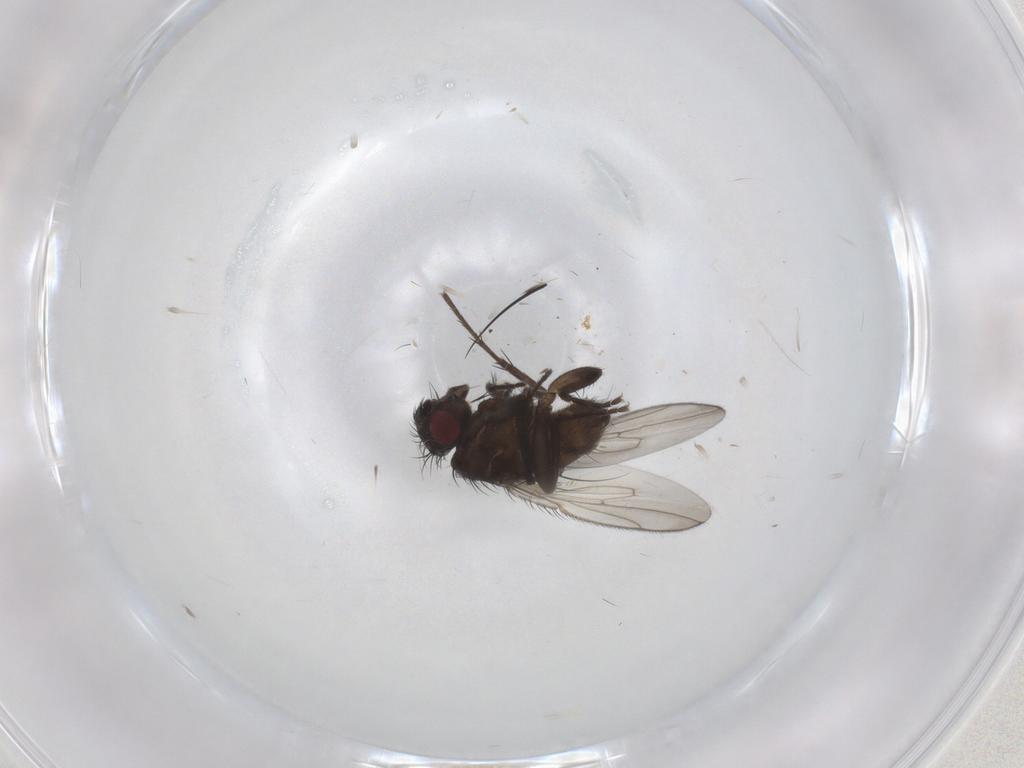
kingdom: Animalia
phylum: Arthropoda
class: Insecta
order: Diptera
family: Sphaeroceridae
